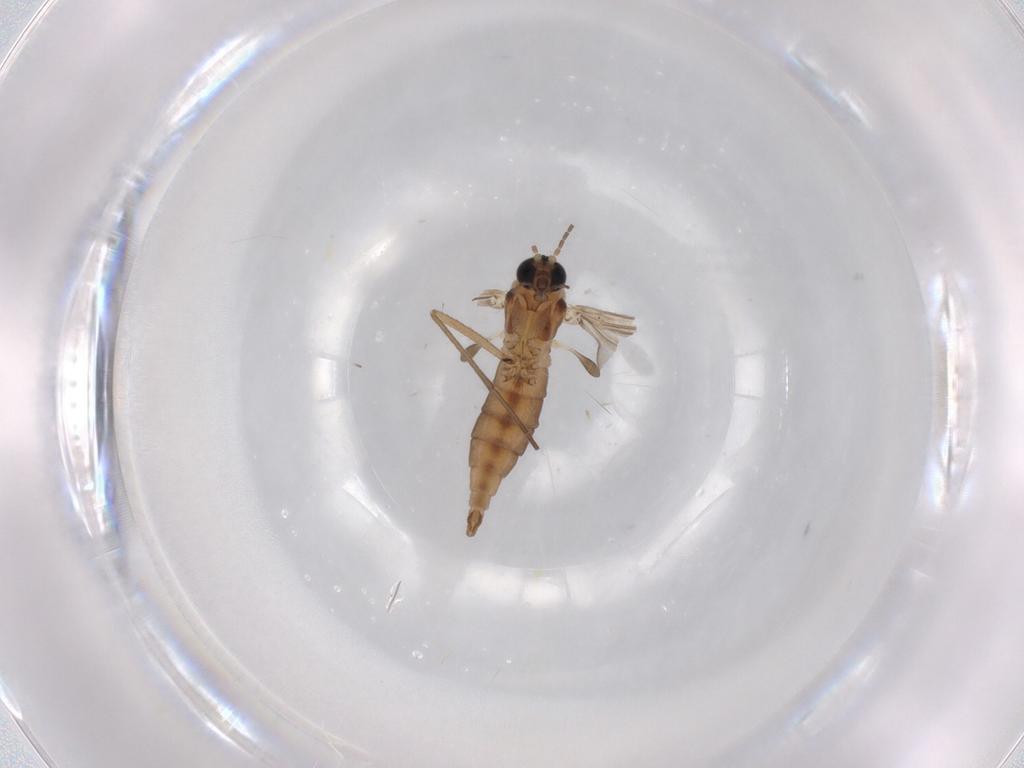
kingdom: Animalia
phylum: Arthropoda
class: Insecta
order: Diptera
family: Sciaridae
